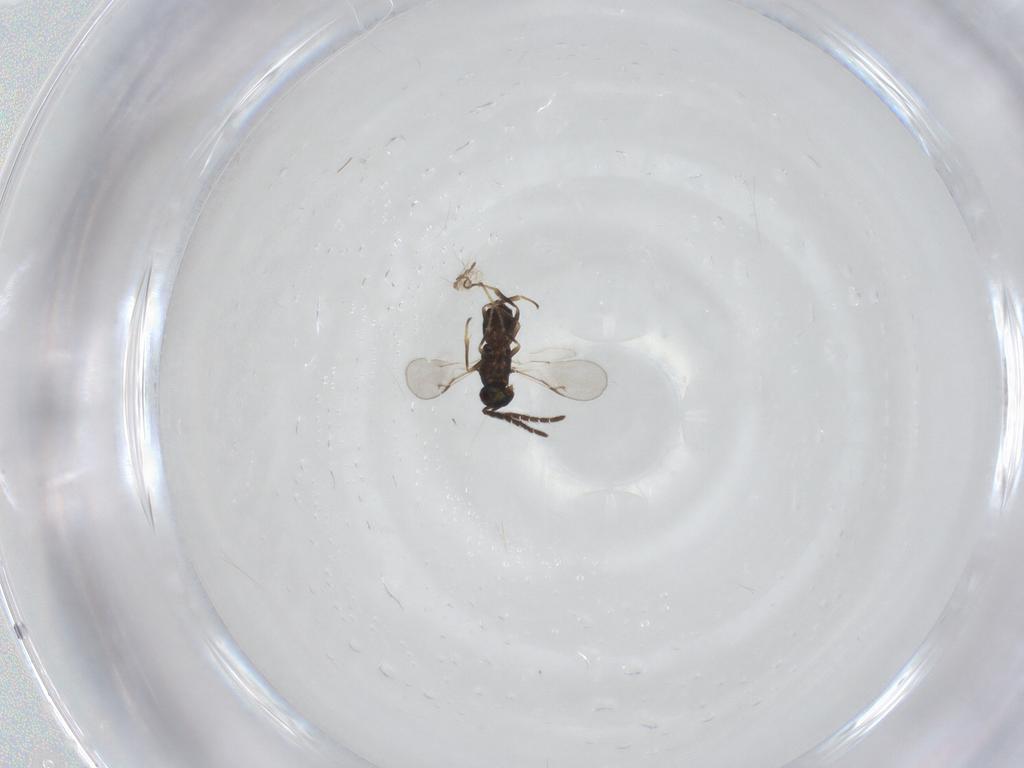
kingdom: Animalia
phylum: Arthropoda
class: Insecta
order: Hymenoptera
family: Encyrtidae
